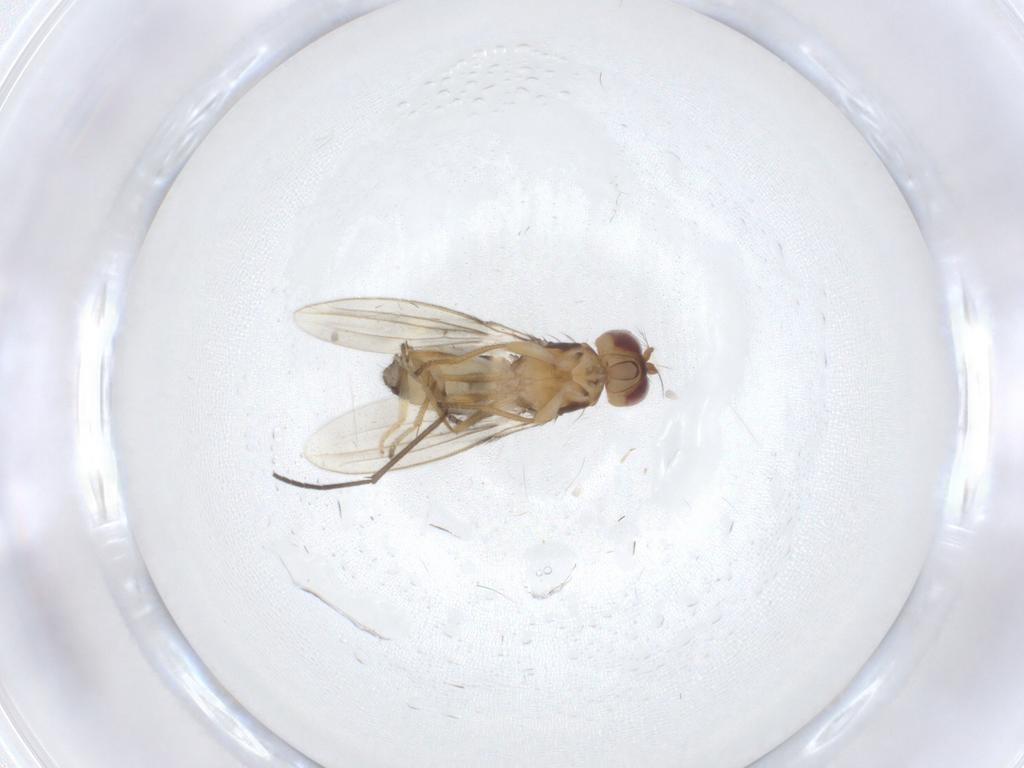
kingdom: Animalia
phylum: Arthropoda
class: Insecta
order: Diptera
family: Periscelididae
